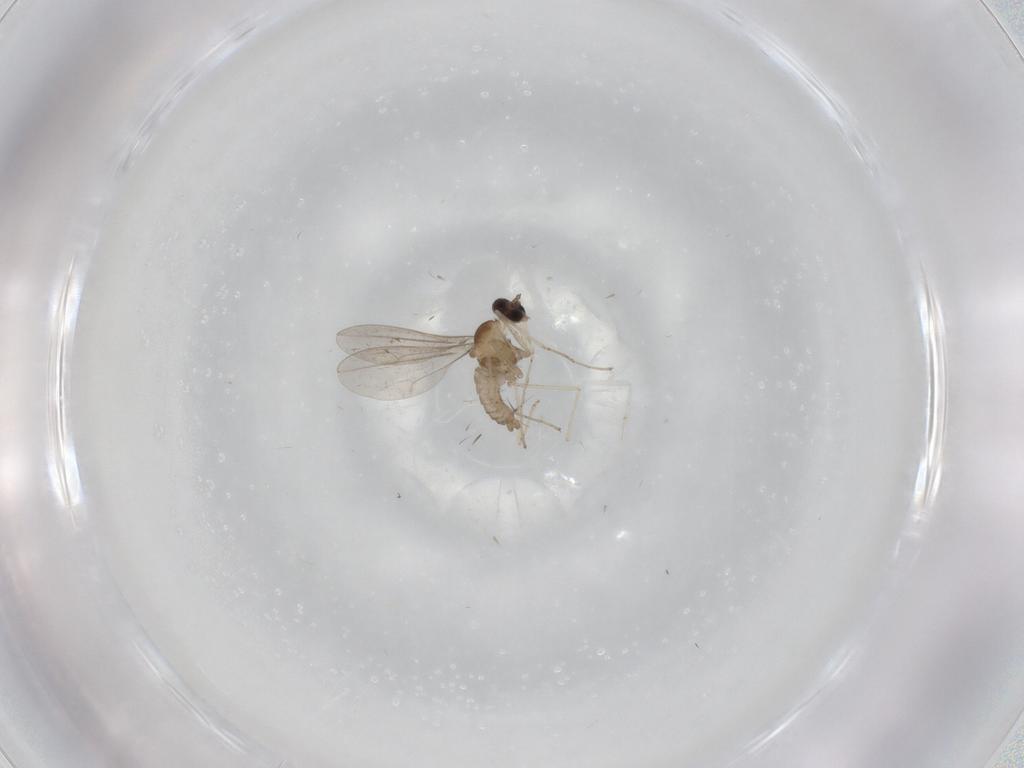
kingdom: Animalia
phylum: Arthropoda
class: Insecta
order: Diptera
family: Cecidomyiidae
